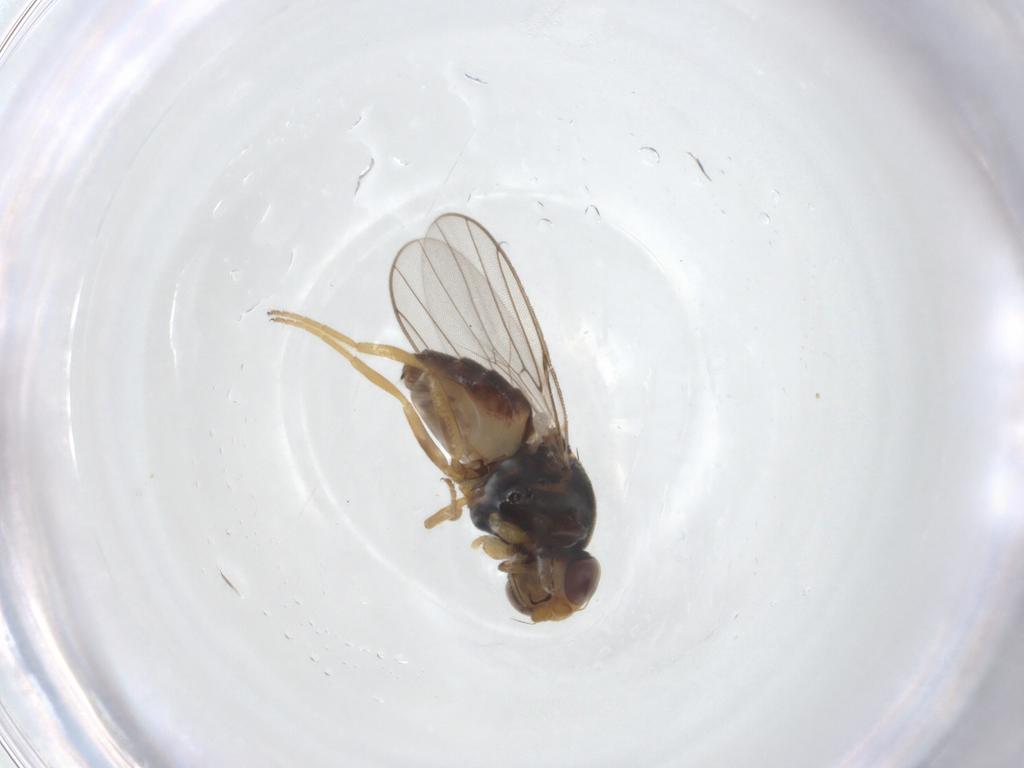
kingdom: Animalia
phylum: Arthropoda
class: Insecta
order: Diptera
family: Chloropidae
